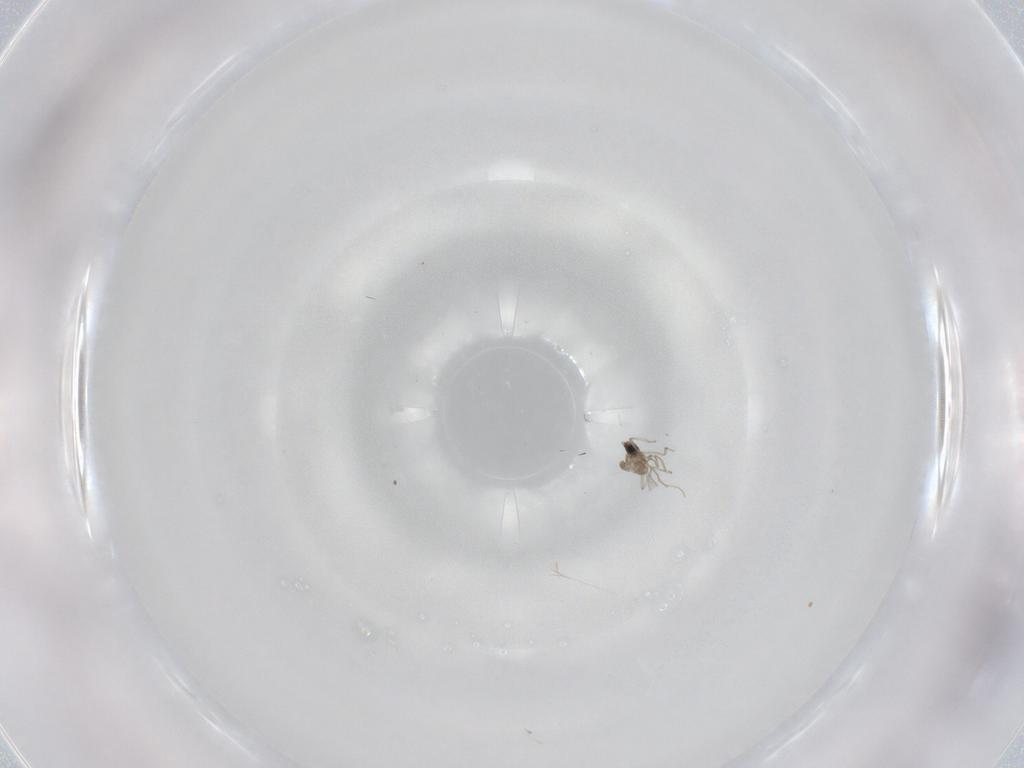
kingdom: Animalia
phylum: Arthropoda
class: Insecta
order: Diptera
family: Cecidomyiidae
